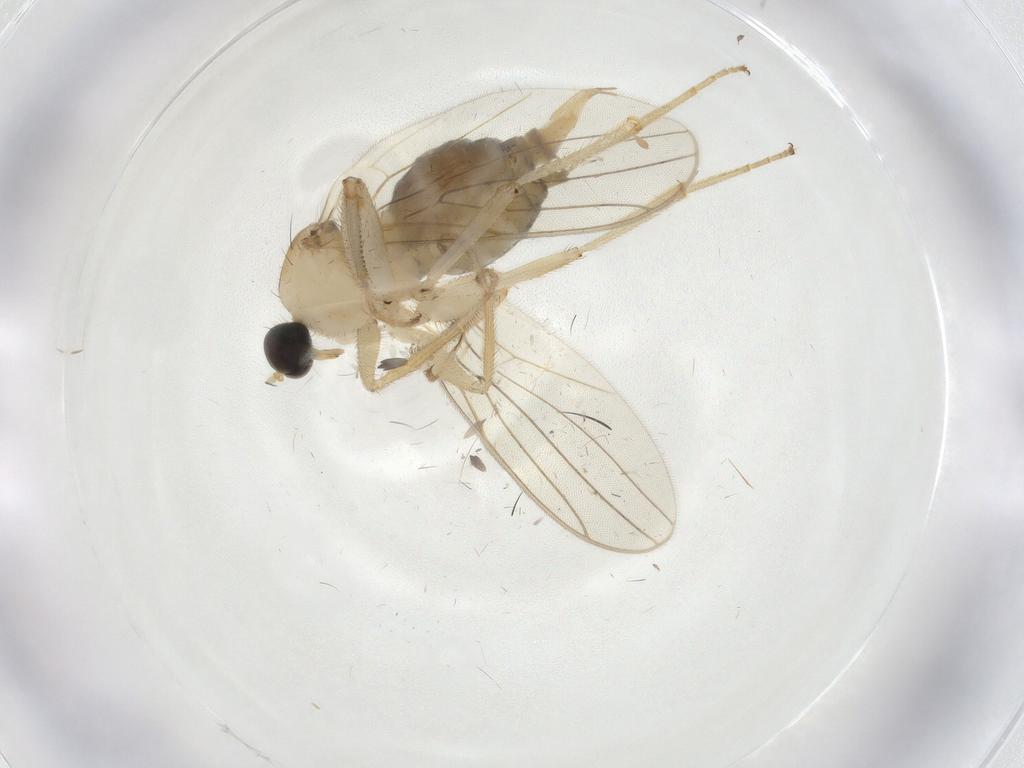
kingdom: Animalia
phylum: Arthropoda
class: Insecta
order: Diptera
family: Hybotidae
